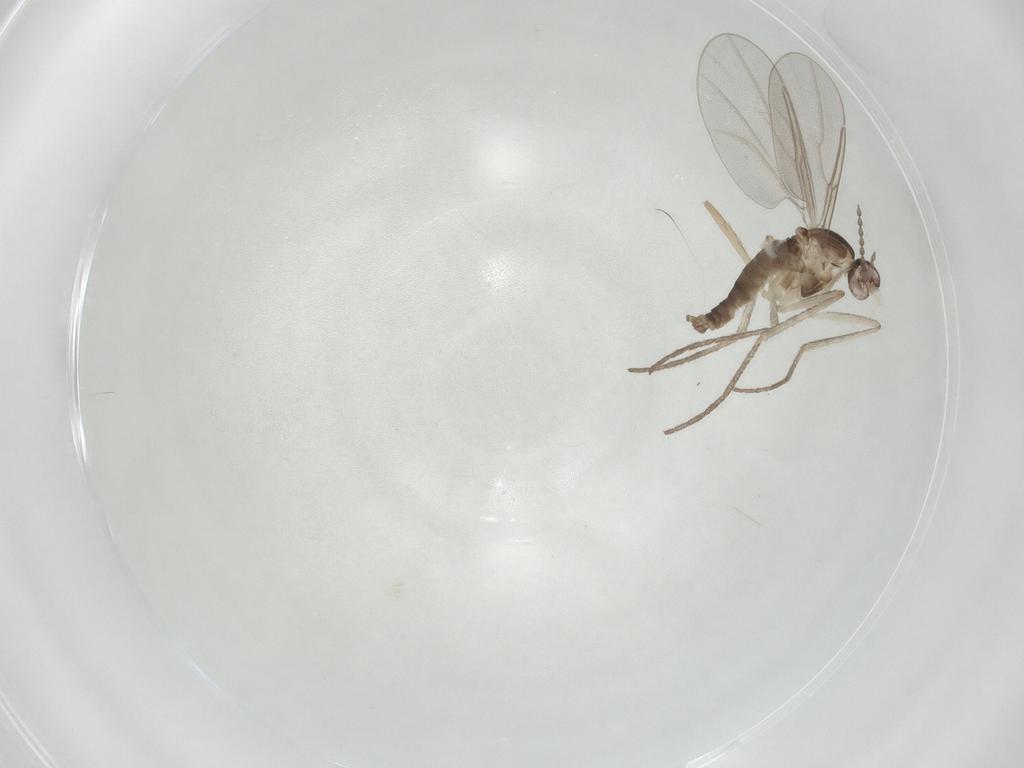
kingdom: Animalia
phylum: Arthropoda
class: Insecta
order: Diptera
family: Cecidomyiidae
